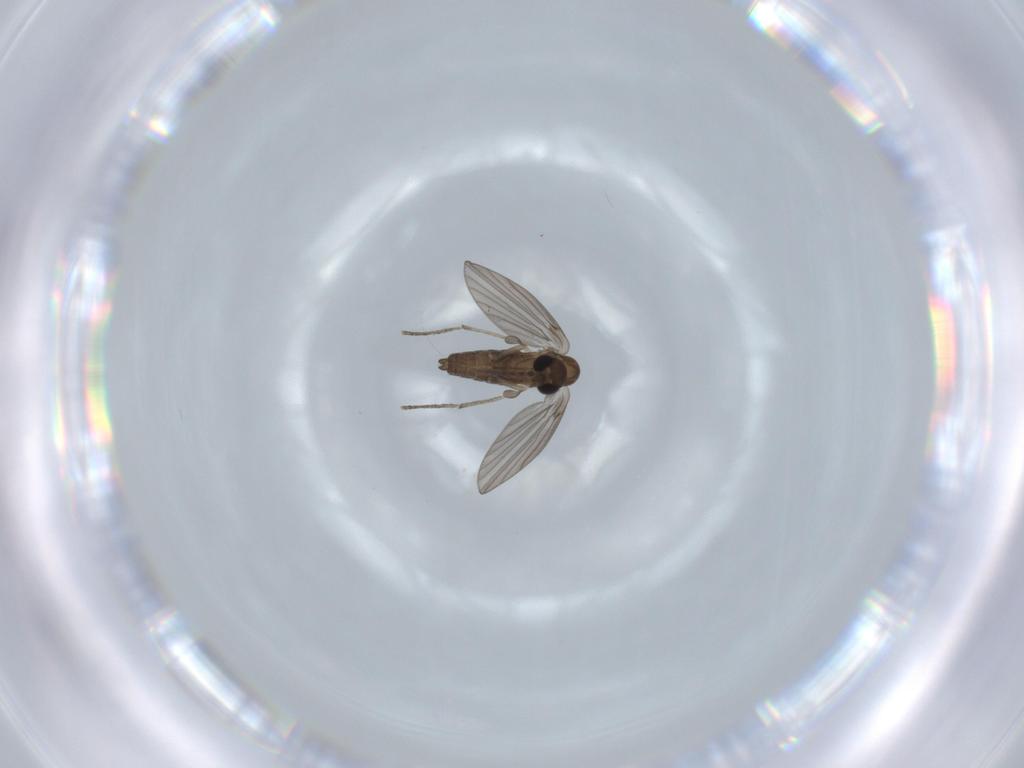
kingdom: Animalia
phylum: Arthropoda
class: Insecta
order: Diptera
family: Psychodidae
